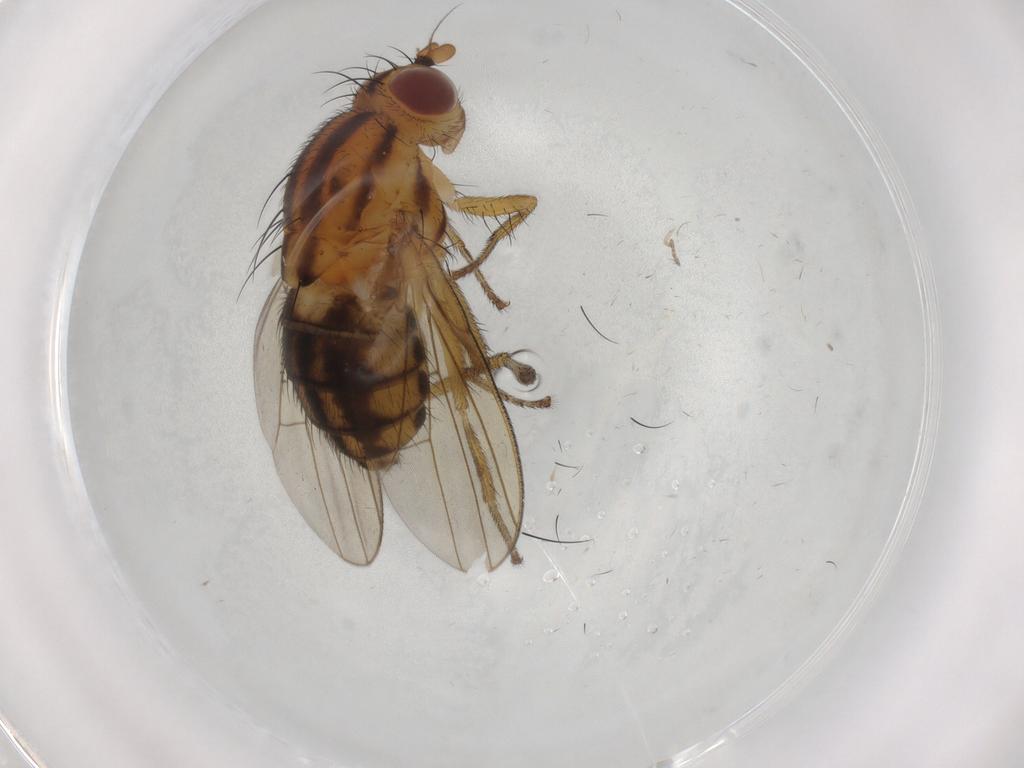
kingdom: Animalia
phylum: Arthropoda
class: Insecta
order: Diptera
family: Psychodidae
